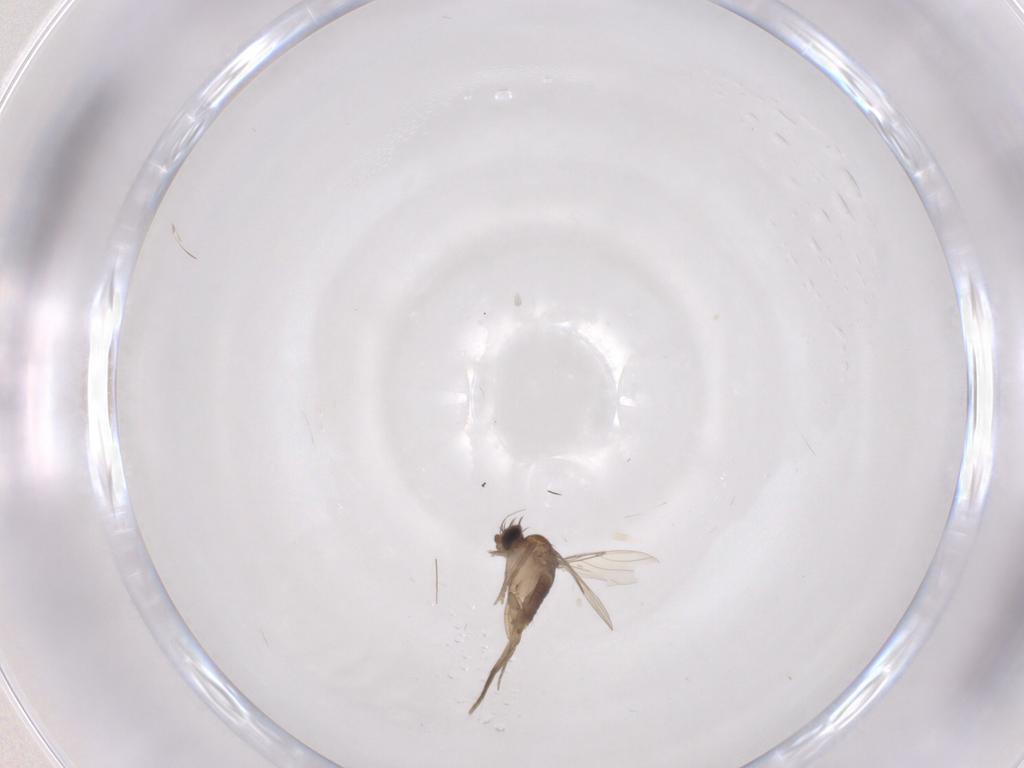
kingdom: Animalia
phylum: Arthropoda
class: Insecta
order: Diptera
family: Phoridae
